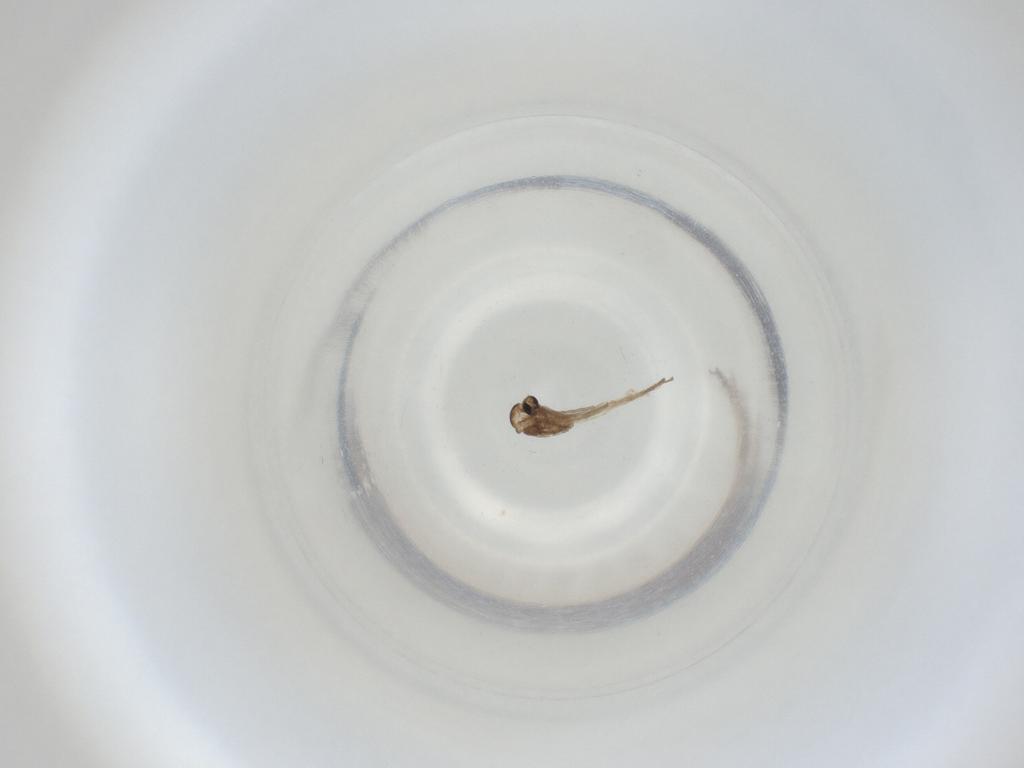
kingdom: Animalia
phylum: Arthropoda
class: Insecta
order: Diptera
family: Cecidomyiidae
